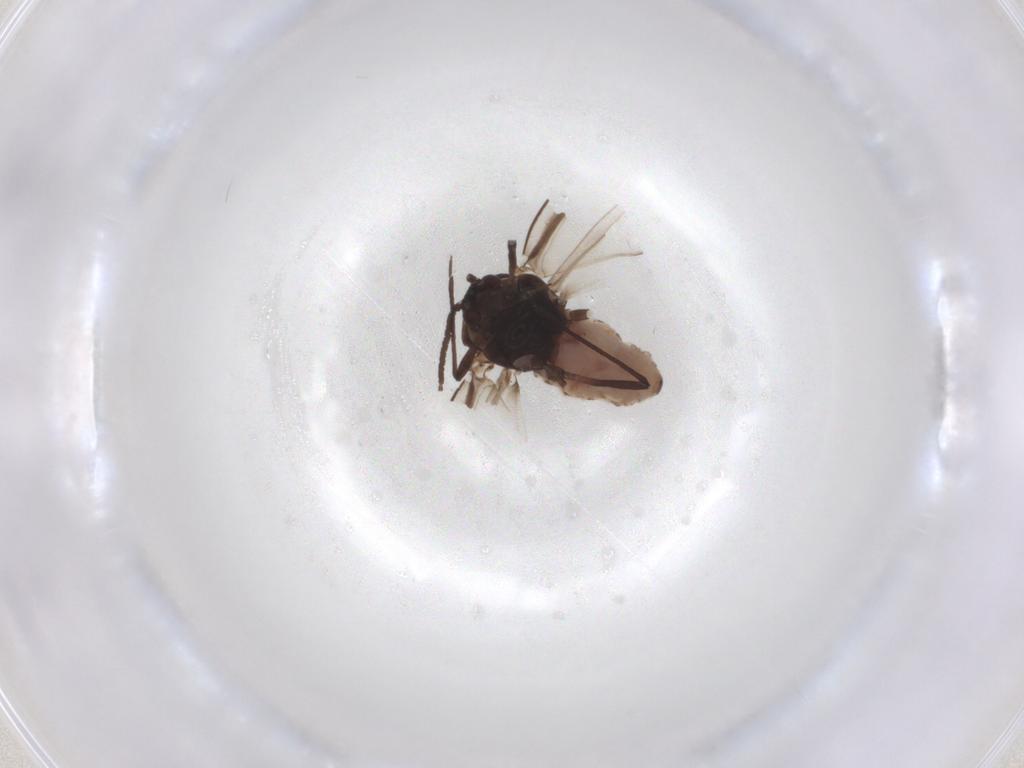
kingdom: Animalia
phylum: Arthropoda
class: Insecta
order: Hemiptera
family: Aphididae
